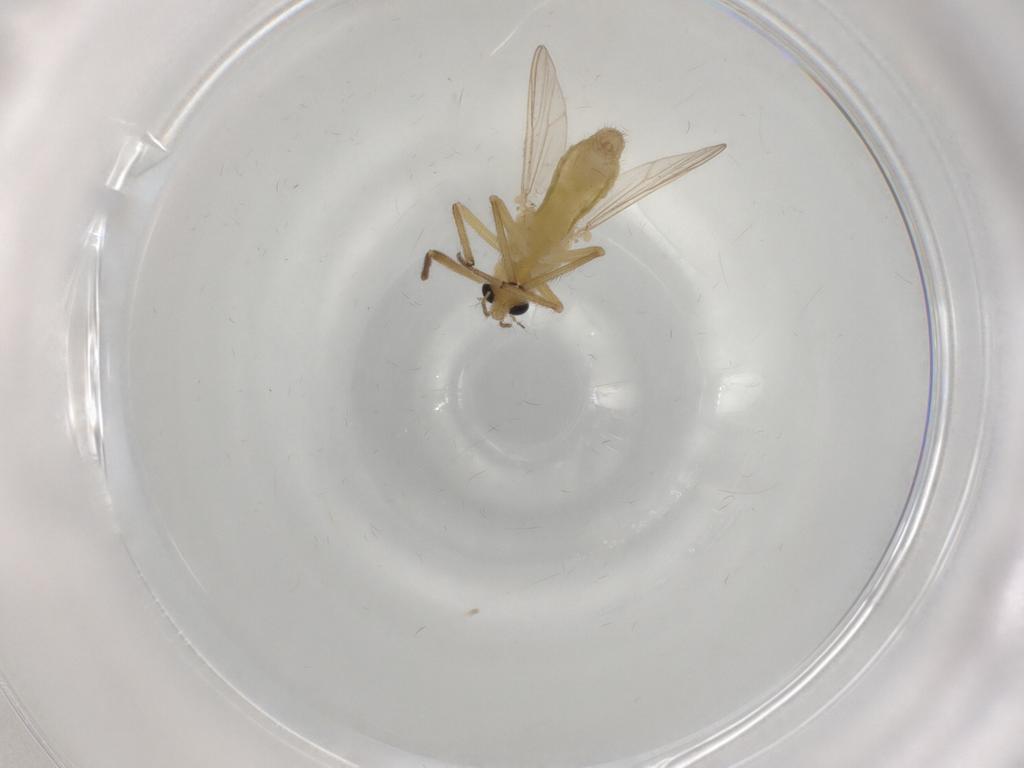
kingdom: Animalia
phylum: Arthropoda
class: Insecta
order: Diptera
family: Chironomidae
